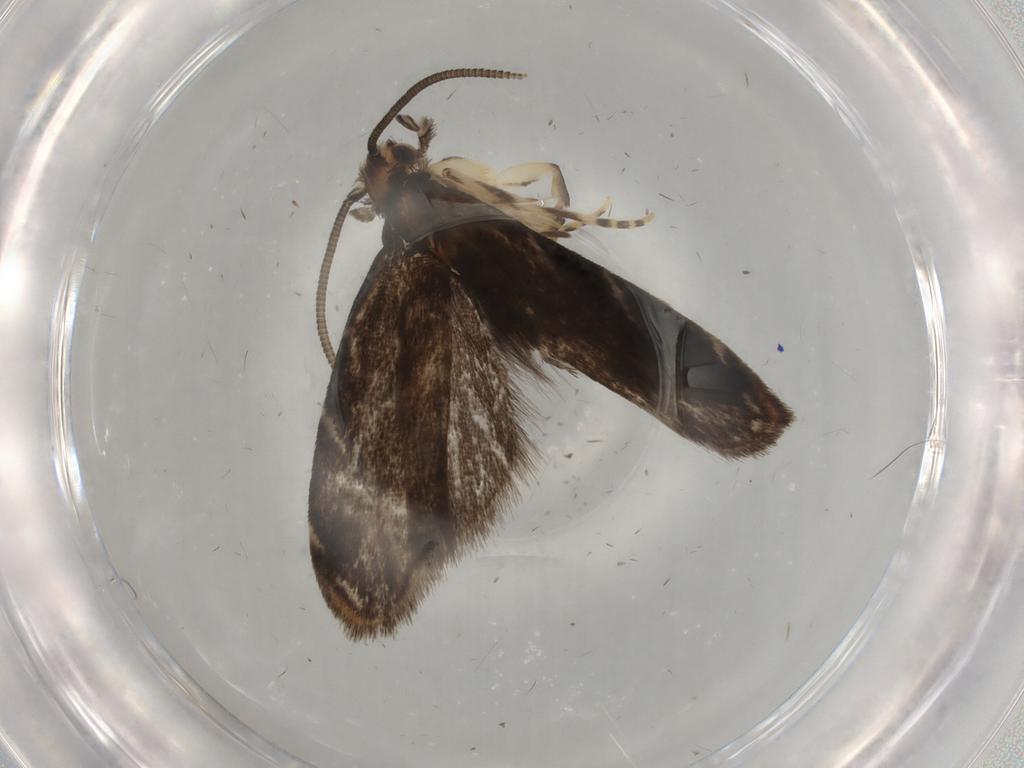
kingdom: Animalia
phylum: Arthropoda
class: Insecta
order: Lepidoptera
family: Dryadaulidae
